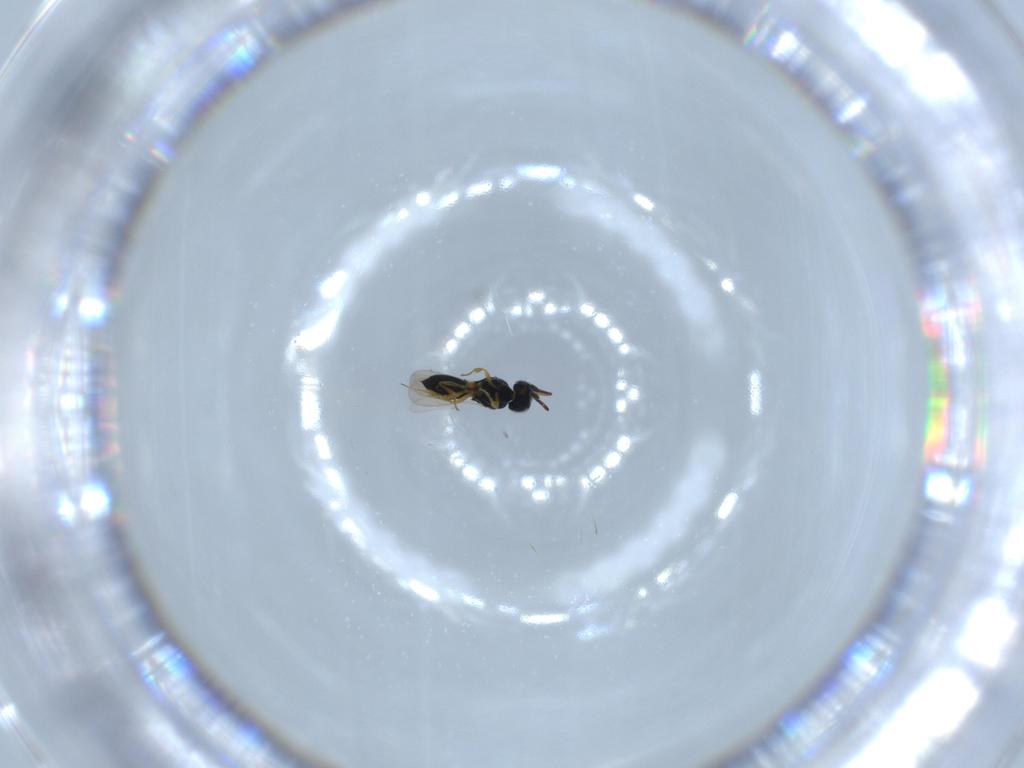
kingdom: Animalia
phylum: Arthropoda
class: Insecta
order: Hymenoptera
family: Scelionidae
